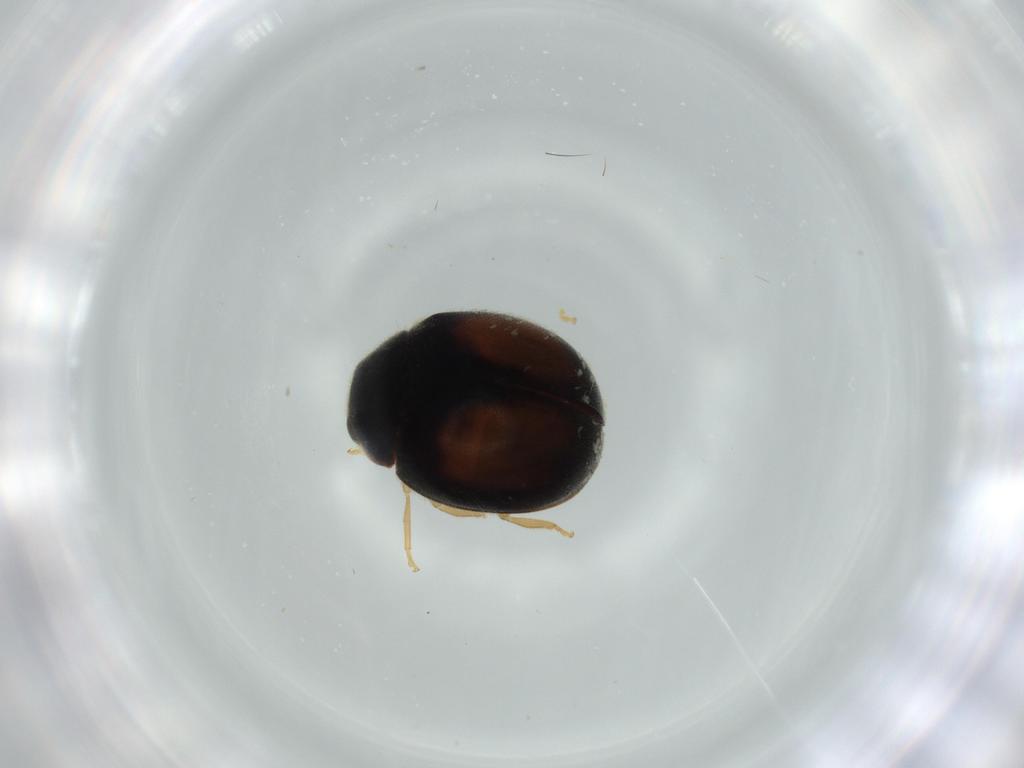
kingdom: Animalia
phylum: Arthropoda
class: Insecta
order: Coleoptera
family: Coccinellidae
